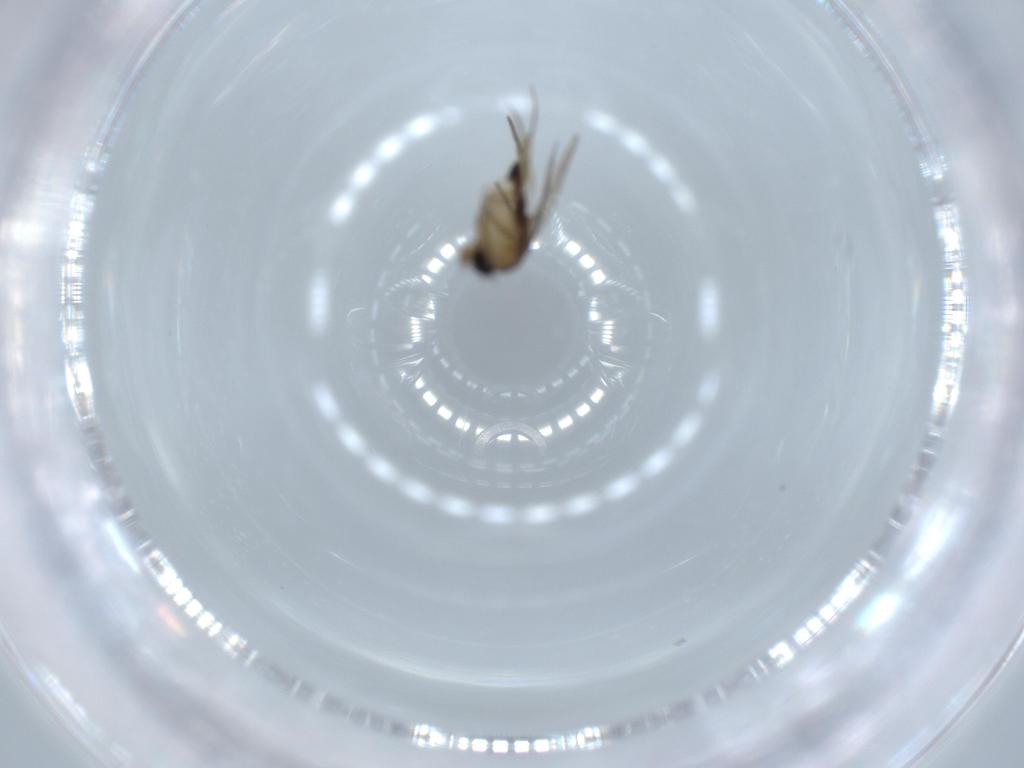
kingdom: Animalia
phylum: Arthropoda
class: Insecta
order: Diptera
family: Phoridae
